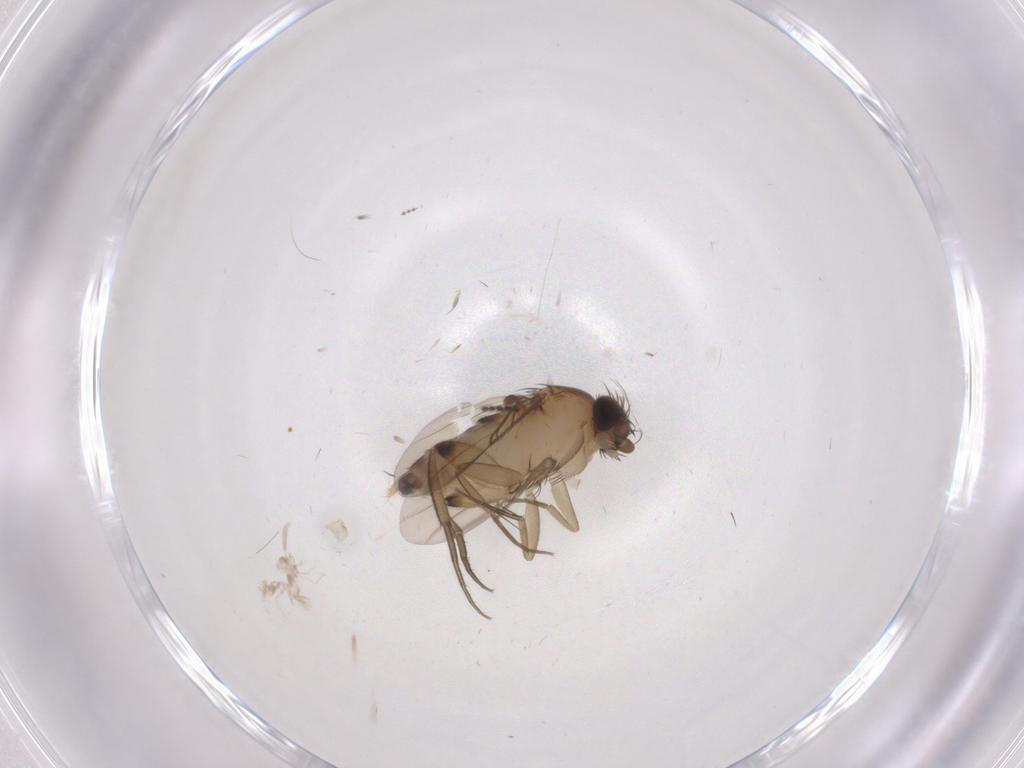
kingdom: Animalia
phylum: Arthropoda
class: Insecta
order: Diptera
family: Phoridae
